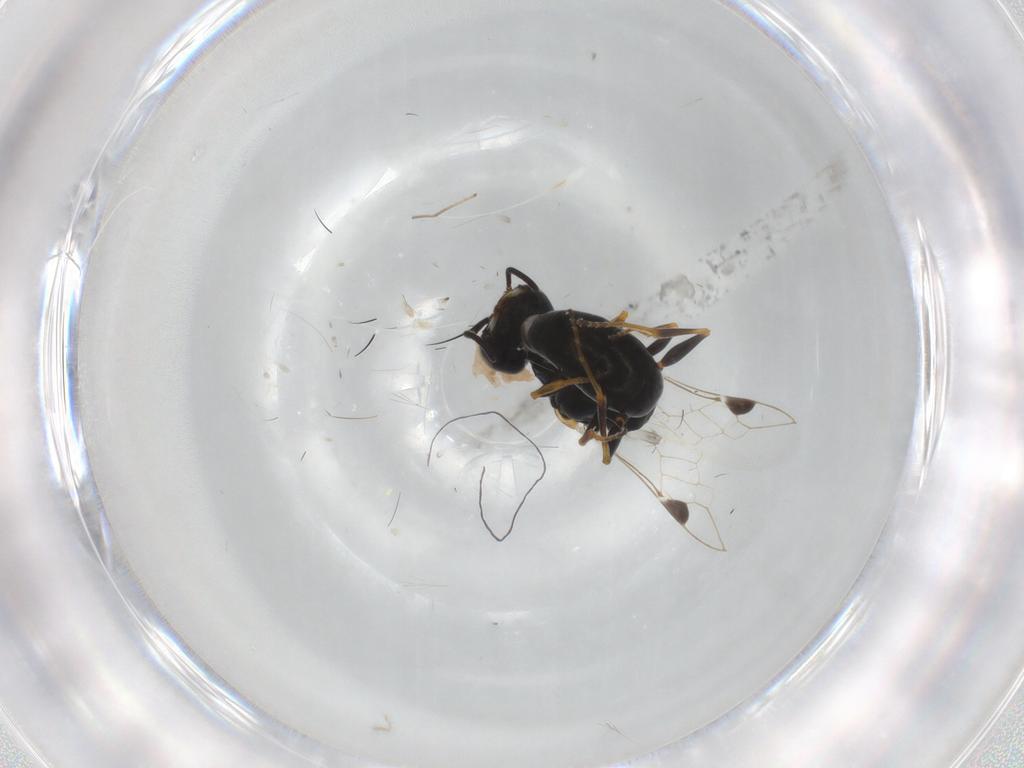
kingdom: Animalia
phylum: Arthropoda
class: Insecta
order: Hymenoptera
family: Crabronidae
